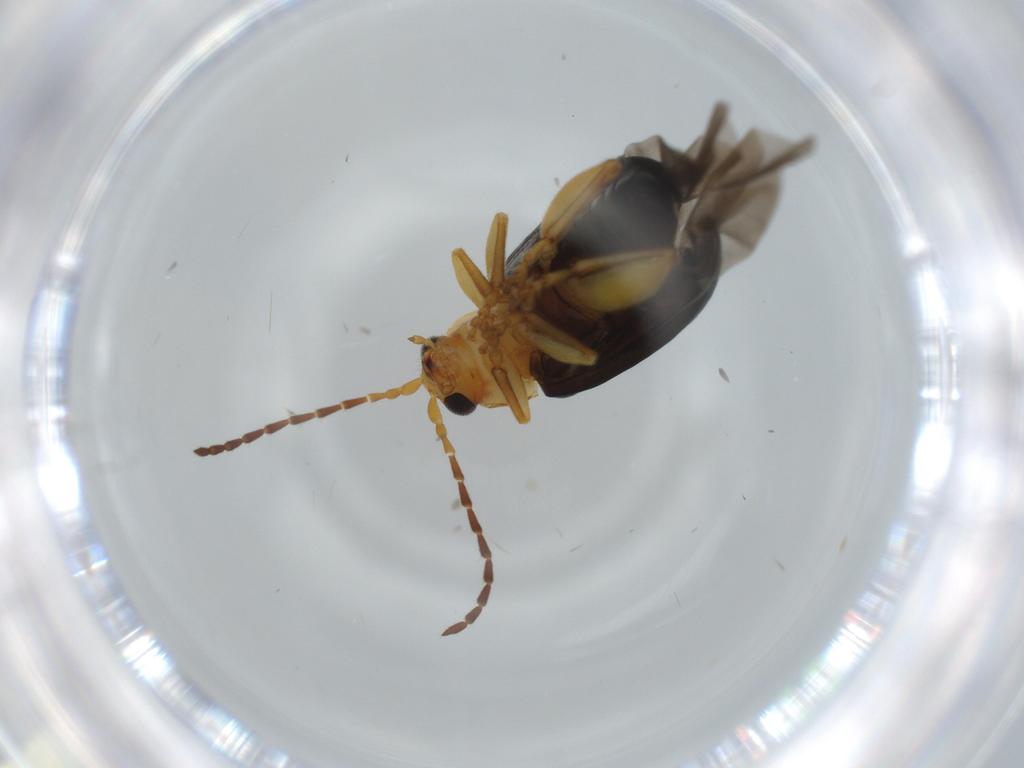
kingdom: Animalia
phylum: Arthropoda
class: Insecta
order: Coleoptera
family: Chrysomelidae
